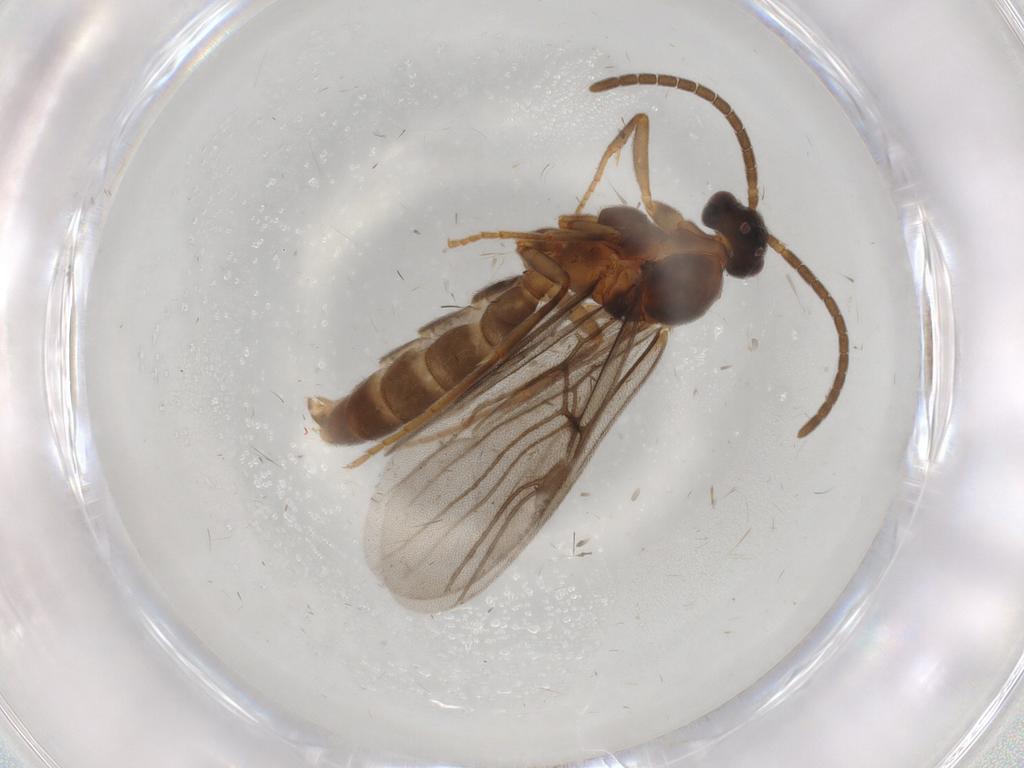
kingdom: Animalia
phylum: Arthropoda
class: Insecta
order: Hymenoptera
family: Formicidae
